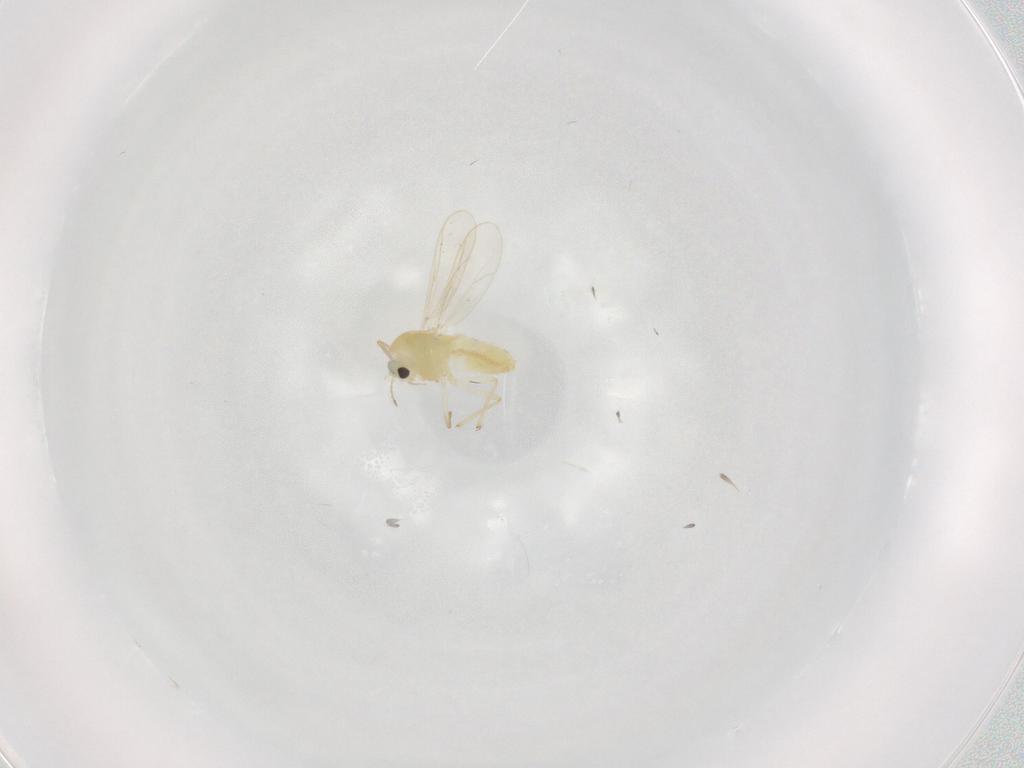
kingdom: Animalia
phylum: Arthropoda
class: Insecta
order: Diptera
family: Chironomidae
